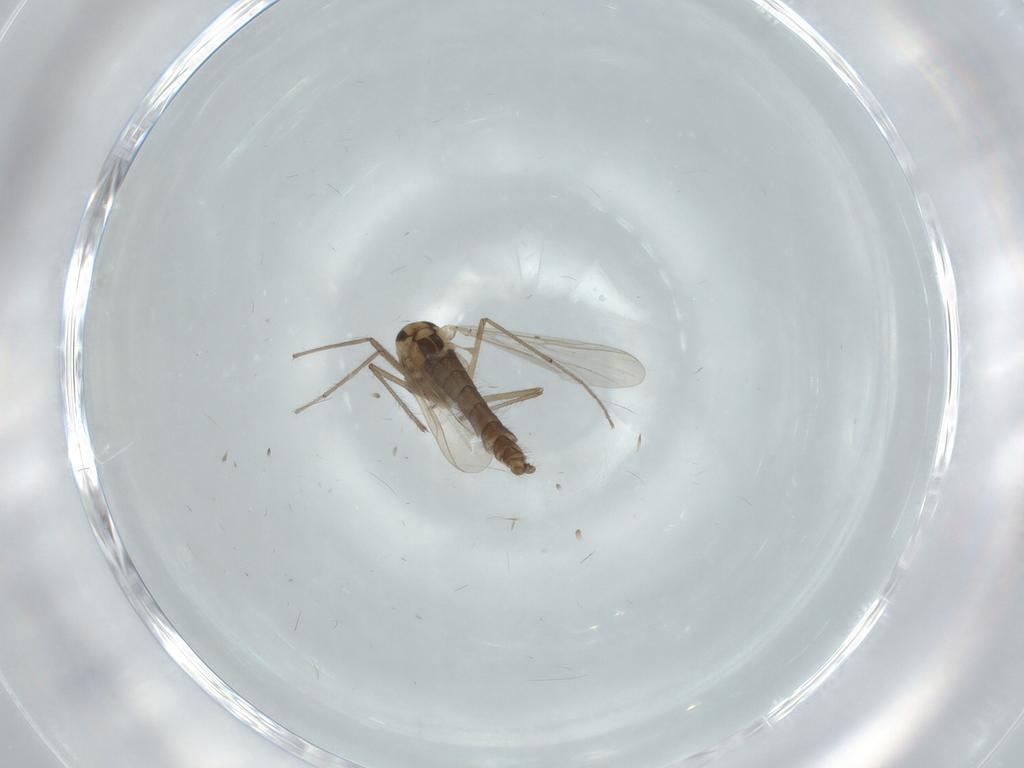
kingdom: Animalia
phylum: Arthropoda
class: Insecta
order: Diptera
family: Chironomidae
